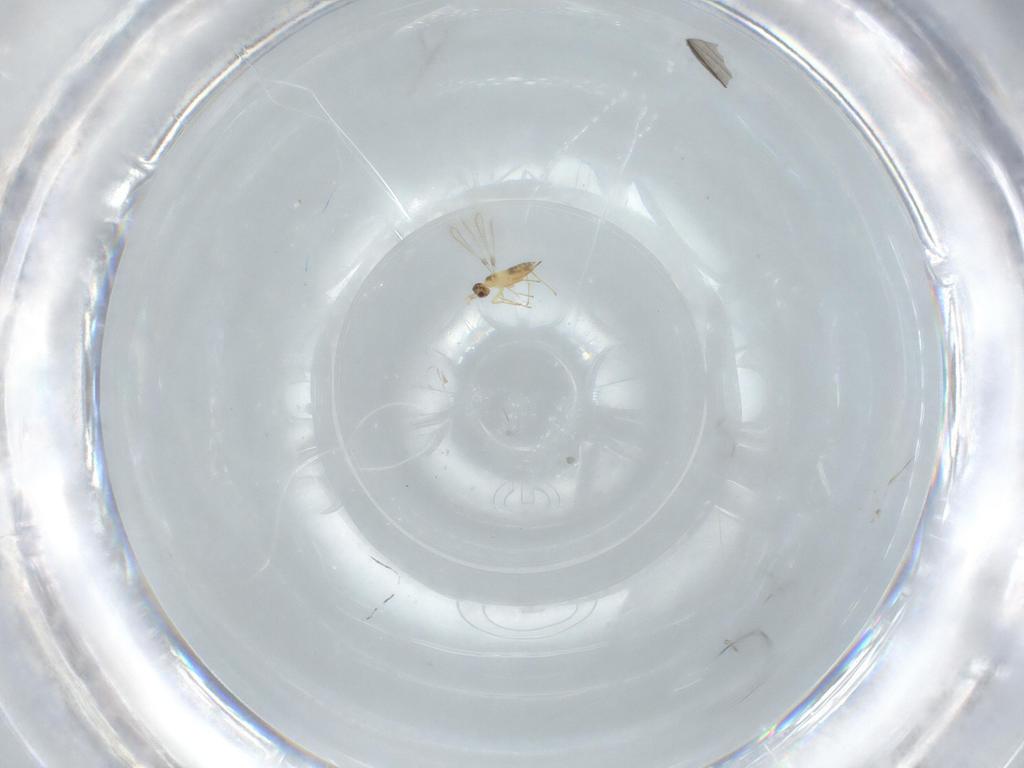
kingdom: Animalia
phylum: Arthropoda
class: Insecta
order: Hymenoptera
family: Mymaridae
